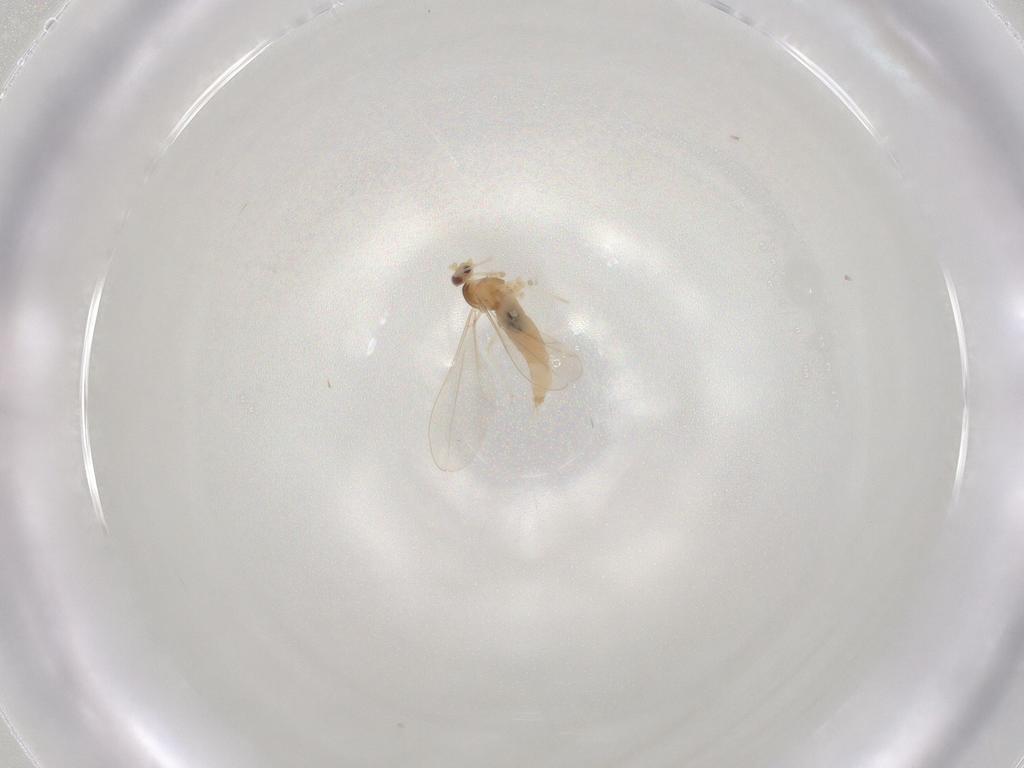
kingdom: Animalia
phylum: Arthropoda
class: Insecta
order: Diptera
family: Cecidomyiidae
